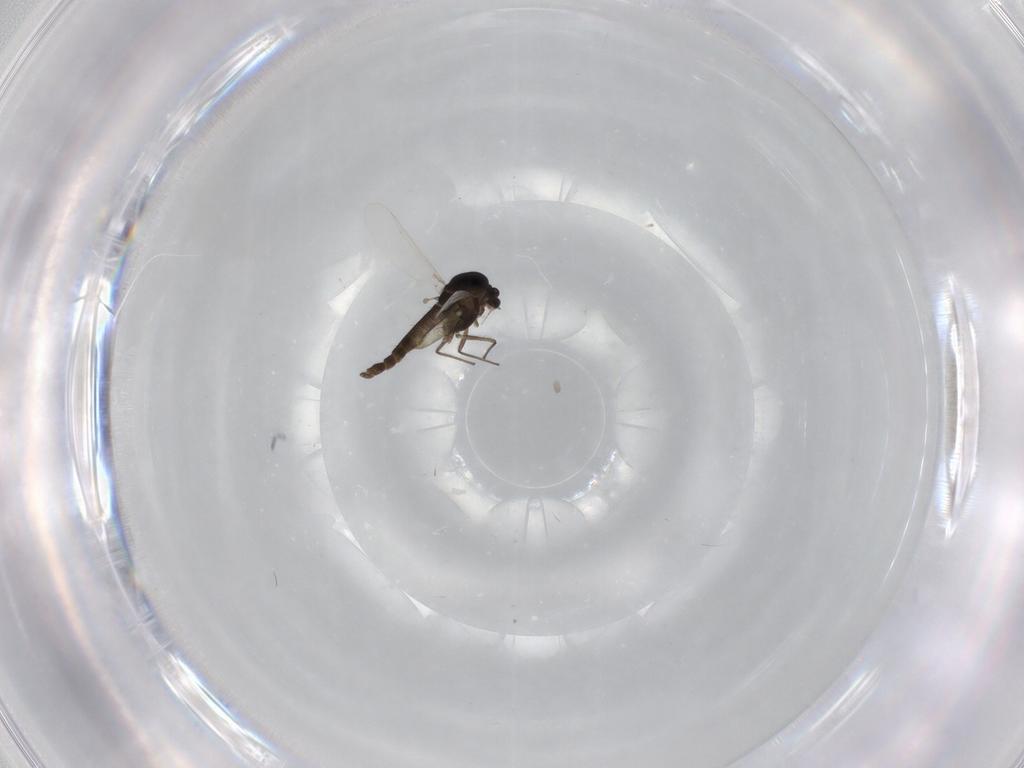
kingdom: Animalia
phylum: Arthropoda
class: Insecta
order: Diptera
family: Chironomidae
